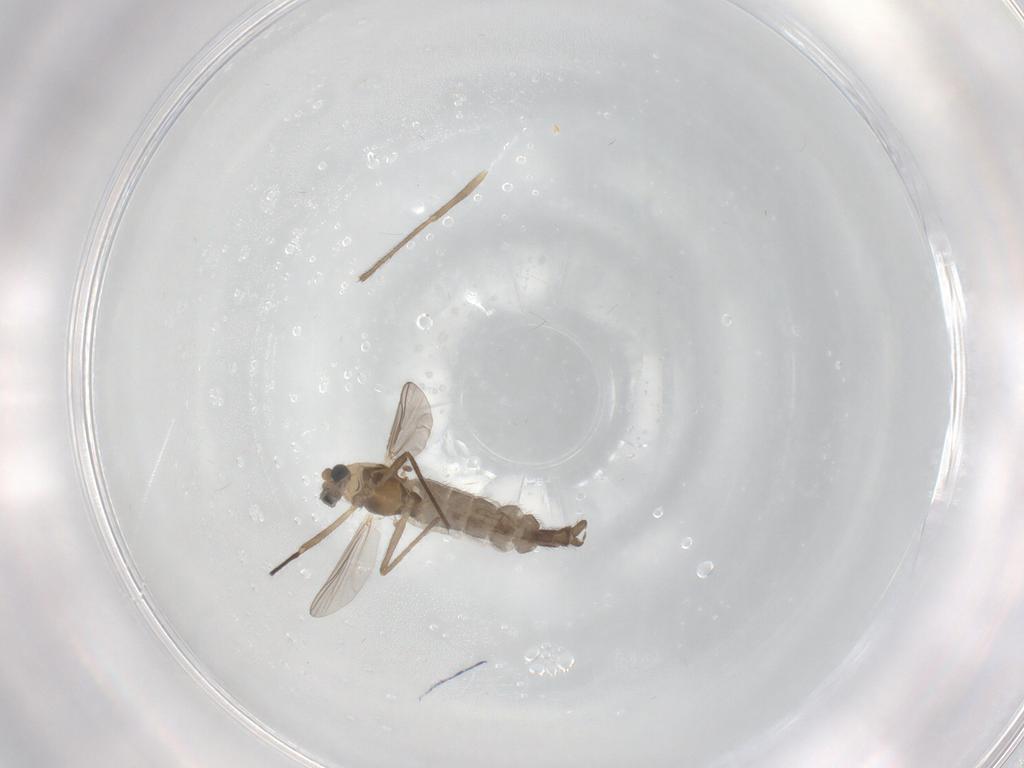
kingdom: Animalia
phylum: Arthropoda
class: Insecta
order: Diptera
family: Chironomidae
